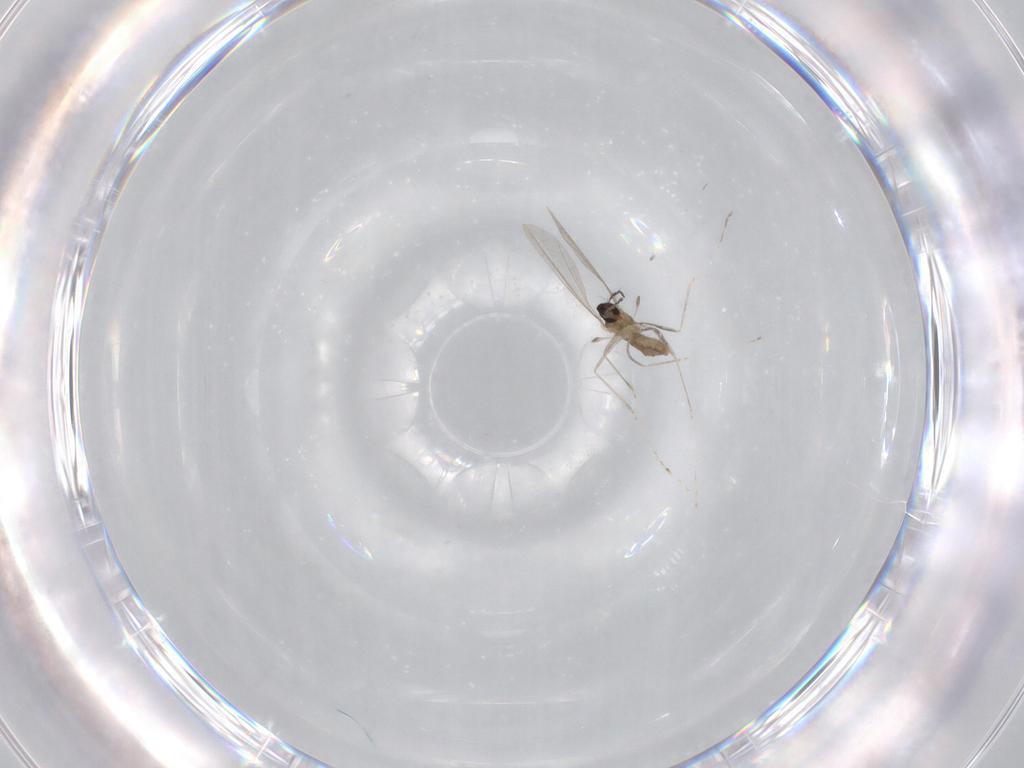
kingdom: Animalia
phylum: Arthropoda
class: Insecta
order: Diptera
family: Cecidomyiidae
